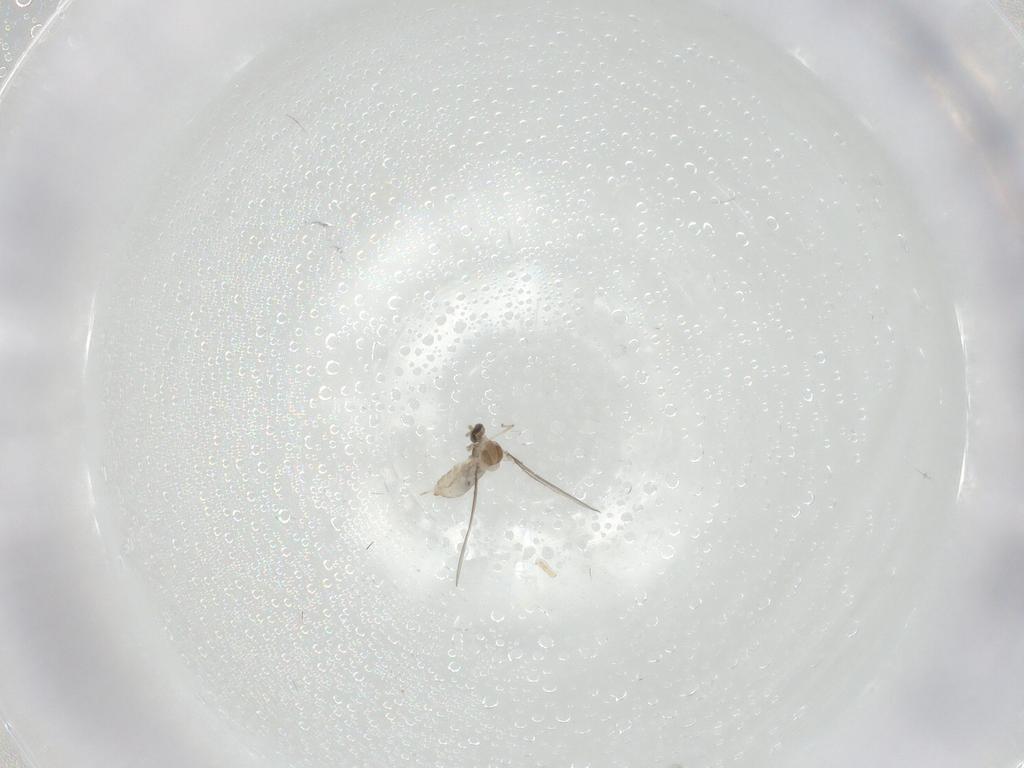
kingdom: Animalia
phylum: Arthropoda
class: Insecta
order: Diptera
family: Cecidomyiidae
